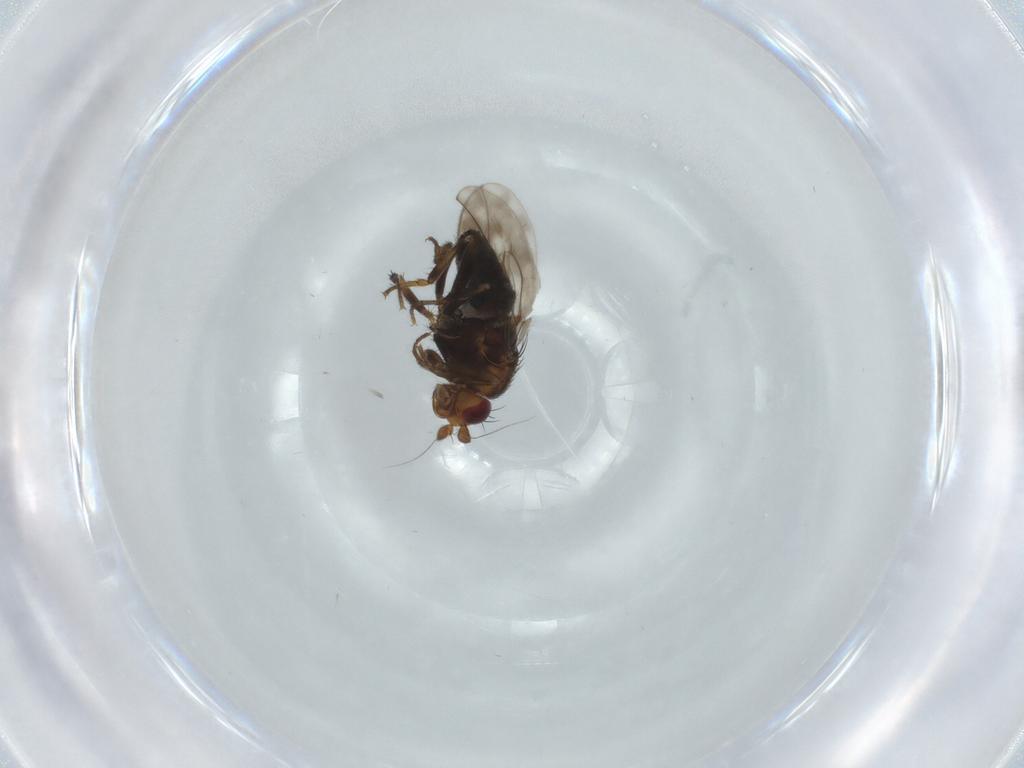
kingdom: Animalia
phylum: Arthropoda
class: Insecta
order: Diptera
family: Sphaeroceridae
